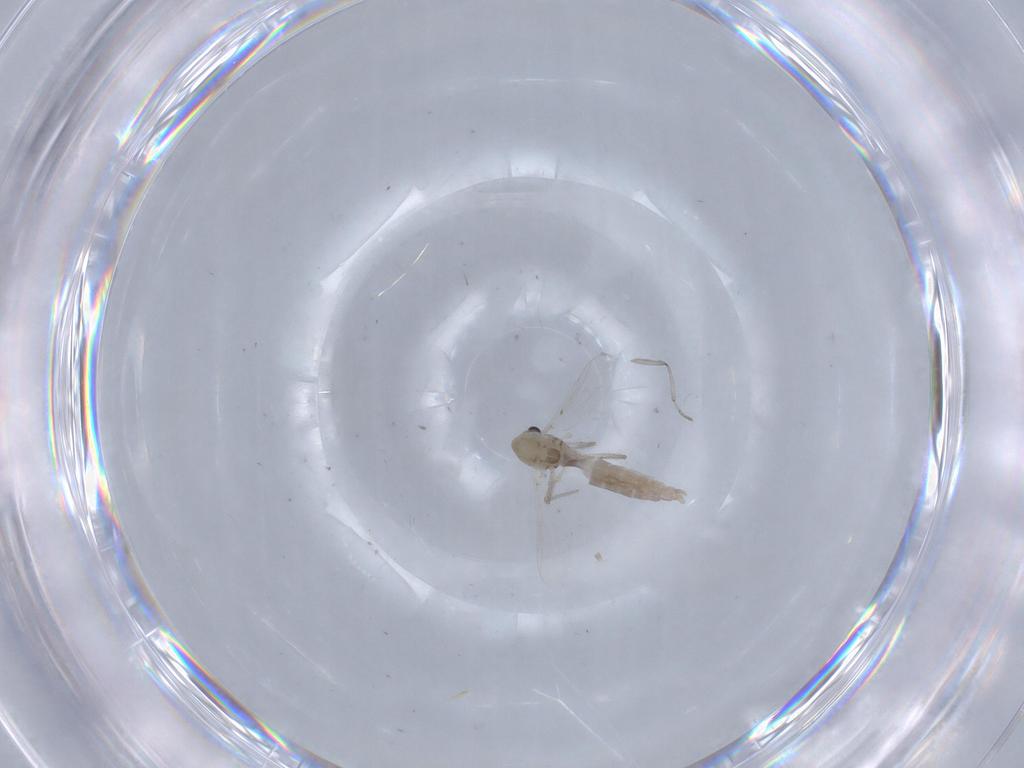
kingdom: Animalia
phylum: Arthropoda
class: Insecta
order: Diptera
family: Chironomidae
